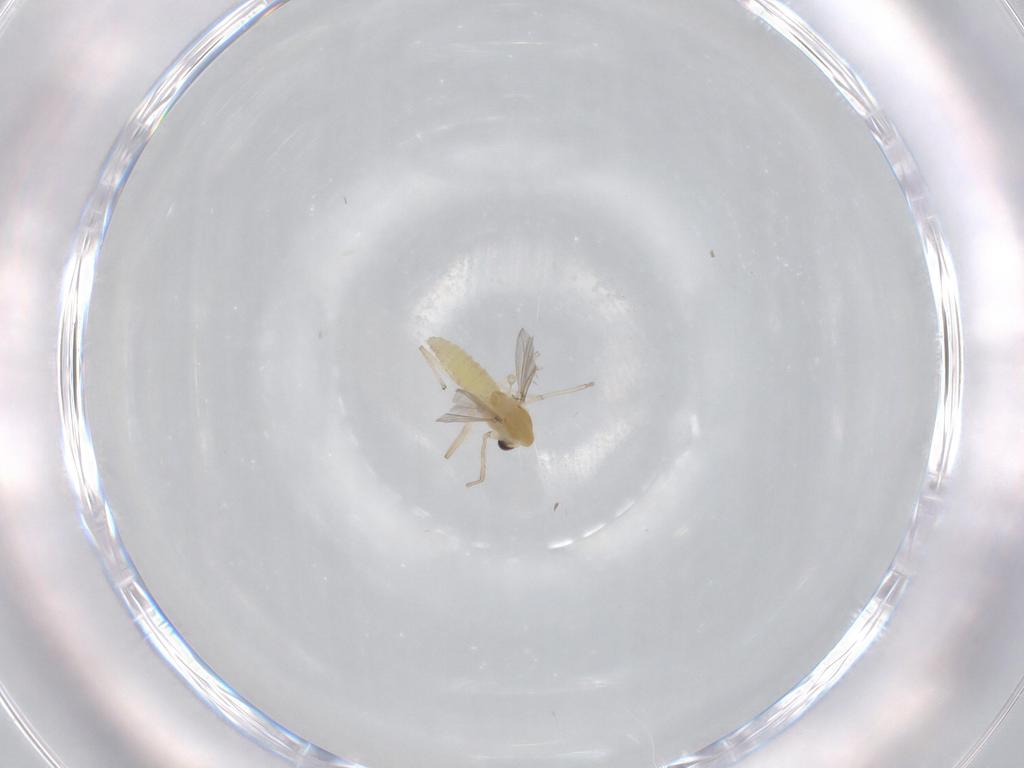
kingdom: Animalia
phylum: Arthropoda
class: Insecta
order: Diptera
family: Chironomidae
